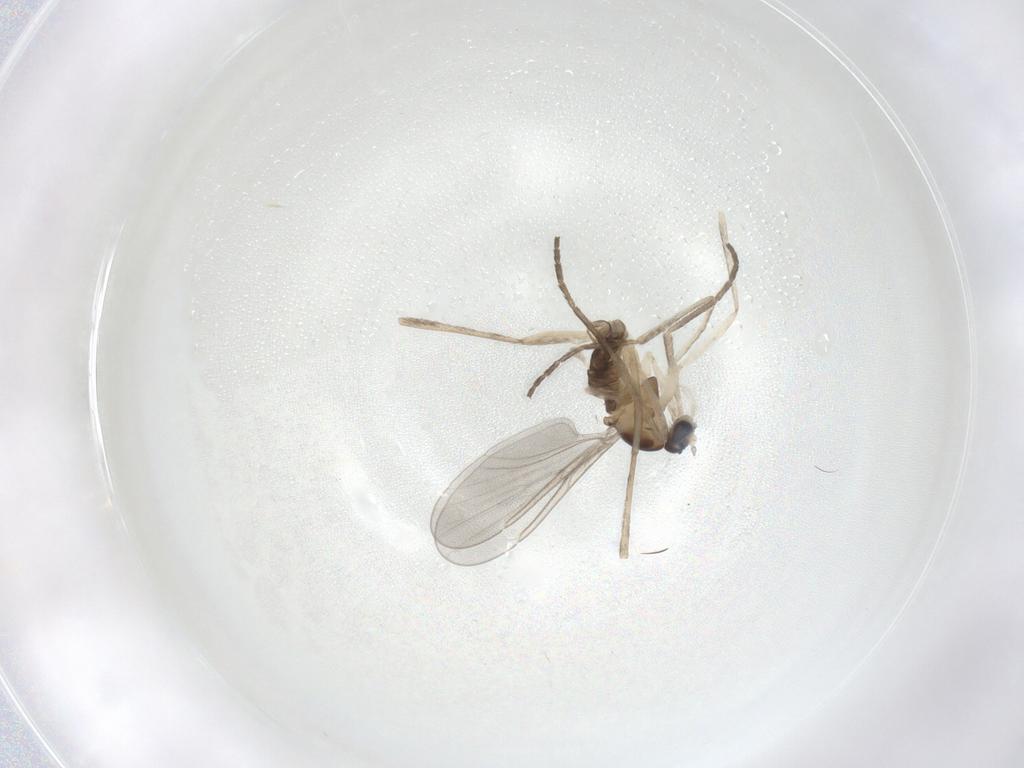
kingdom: Animalia
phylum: Arthropoda
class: Insecta
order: Diptera
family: Cecidomyiidae
